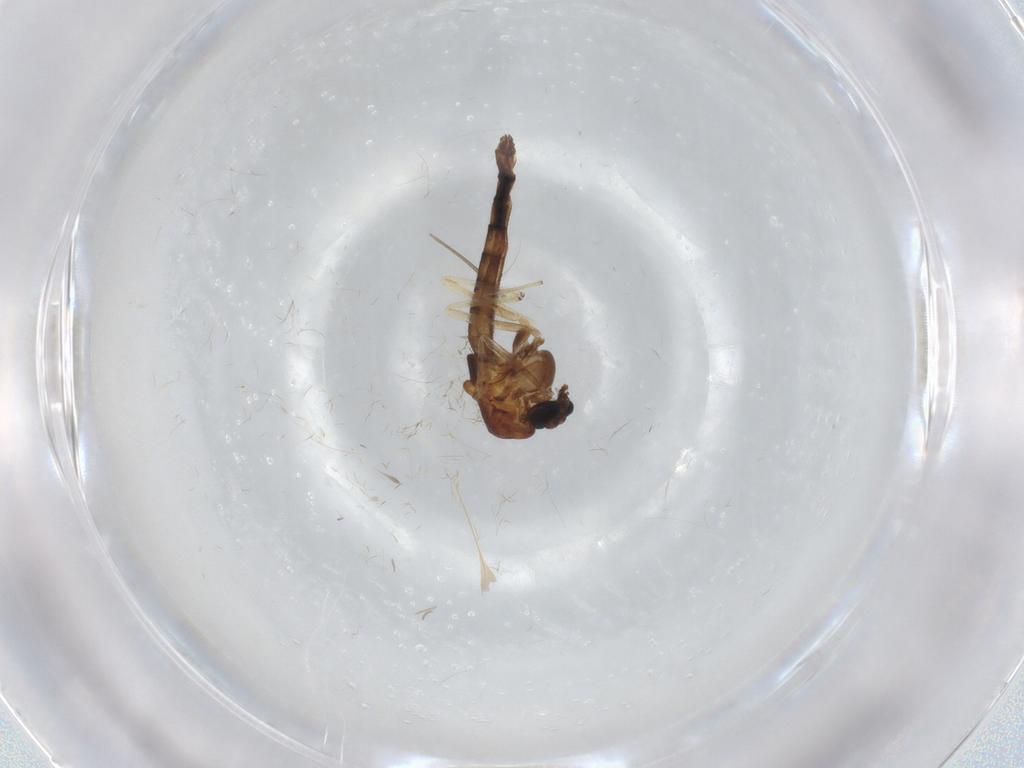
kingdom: Animalia
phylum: Arthropoda
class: Insecta
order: Diptera
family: Chironomidae
